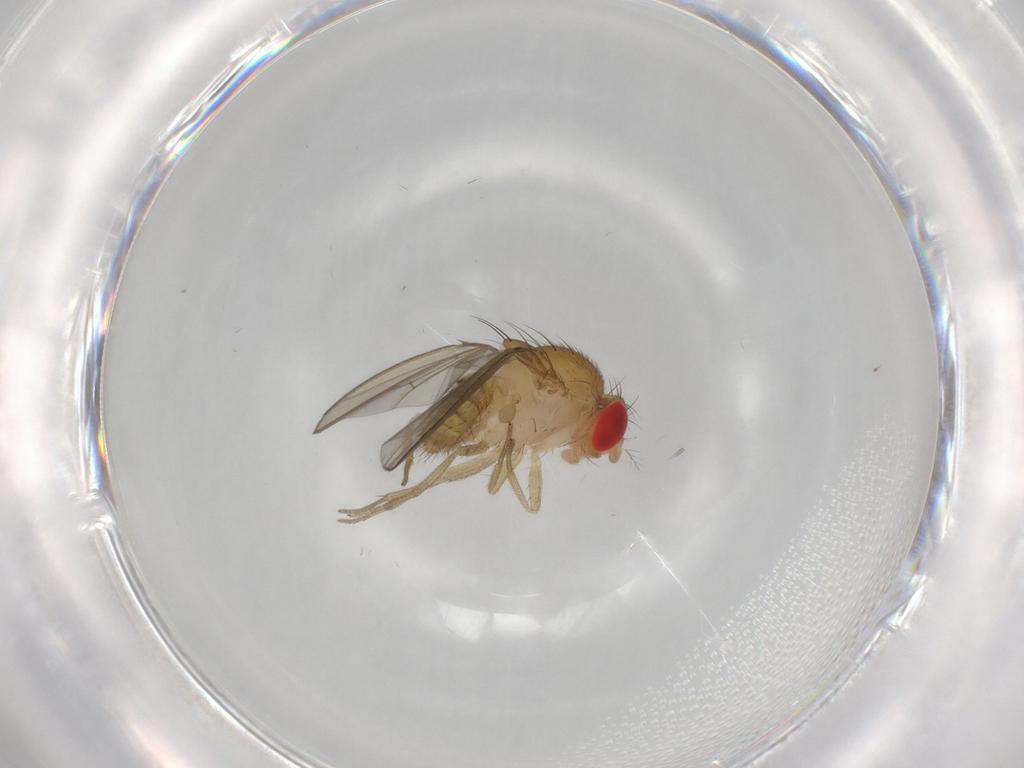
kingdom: Animalia
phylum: Arthropoda
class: Insecta
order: Diptera
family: Drosophilidae
